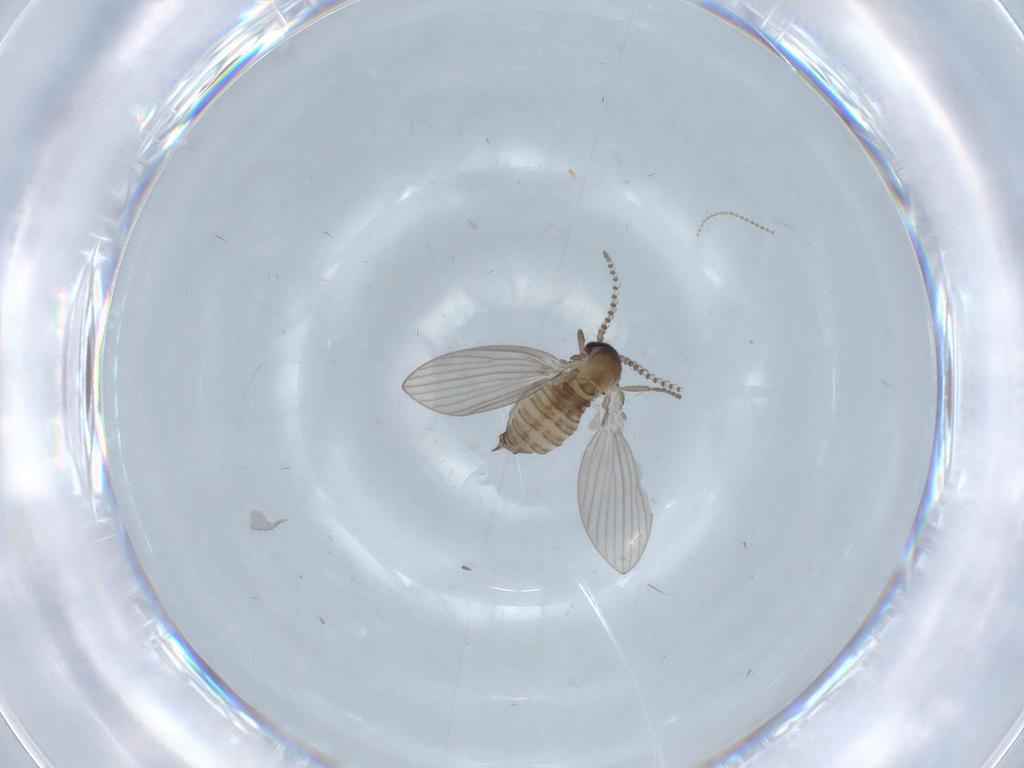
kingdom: Animalia
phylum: Arthropoda
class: Insecta
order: Diptera
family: Psychodidae
